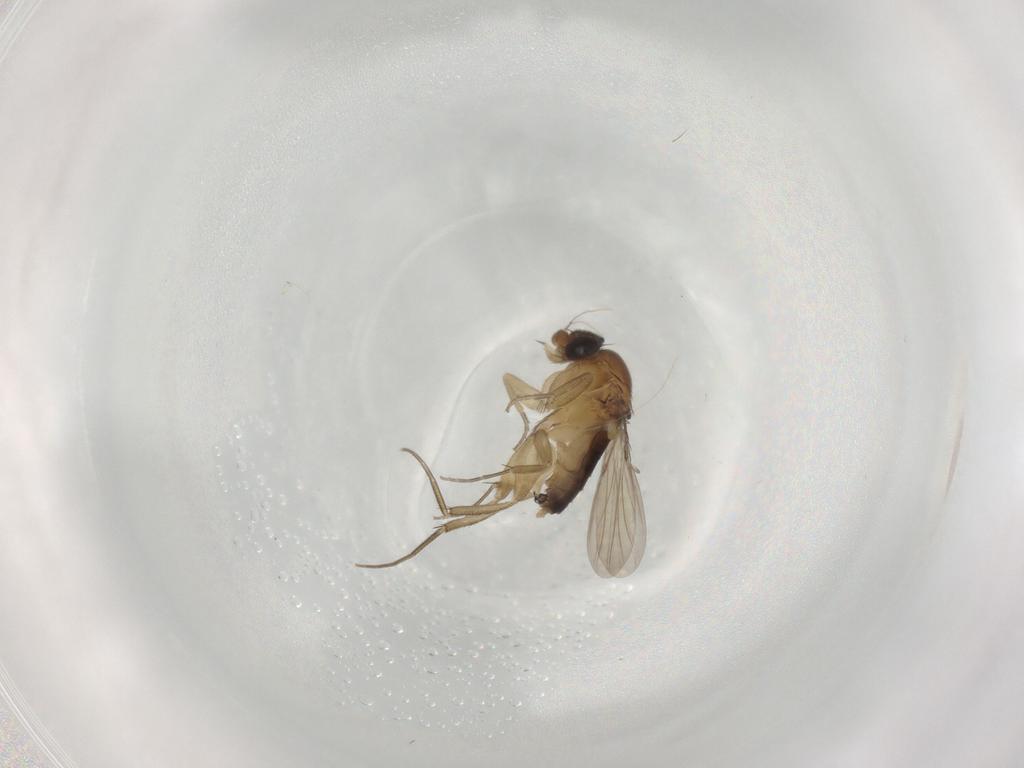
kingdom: Animalia
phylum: Arthropoda
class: Insecta
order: Diptera
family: Phoridae
